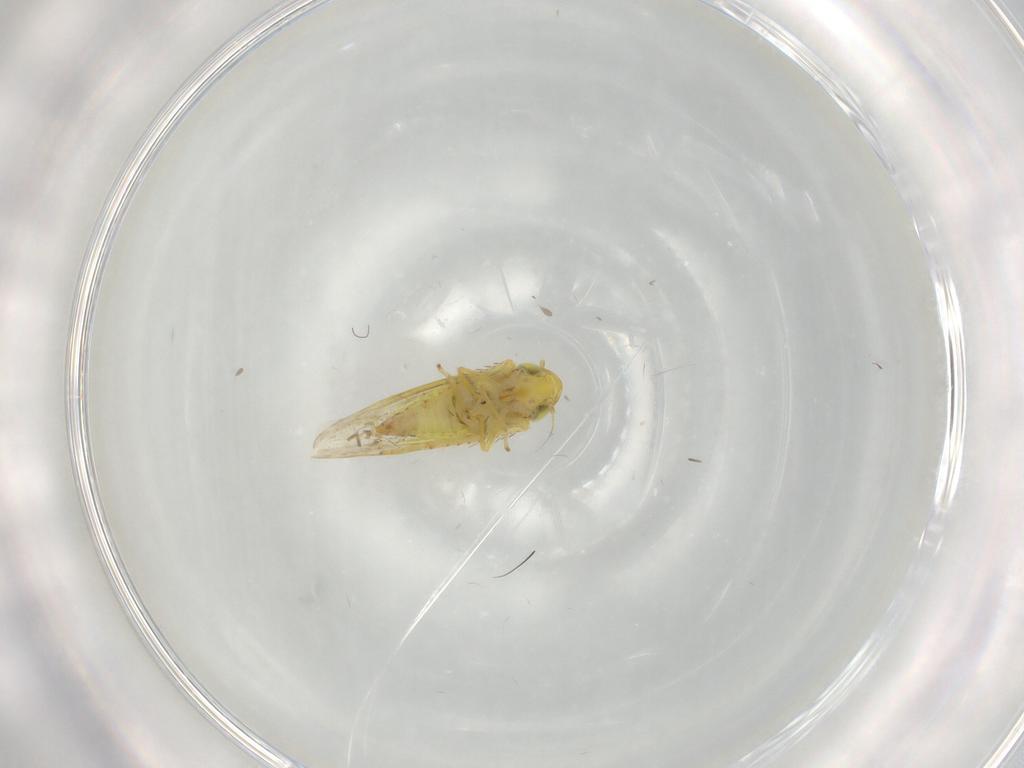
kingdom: Animalia
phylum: Arthropoda
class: Insecta
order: Hemiptera
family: Cicadellidae
